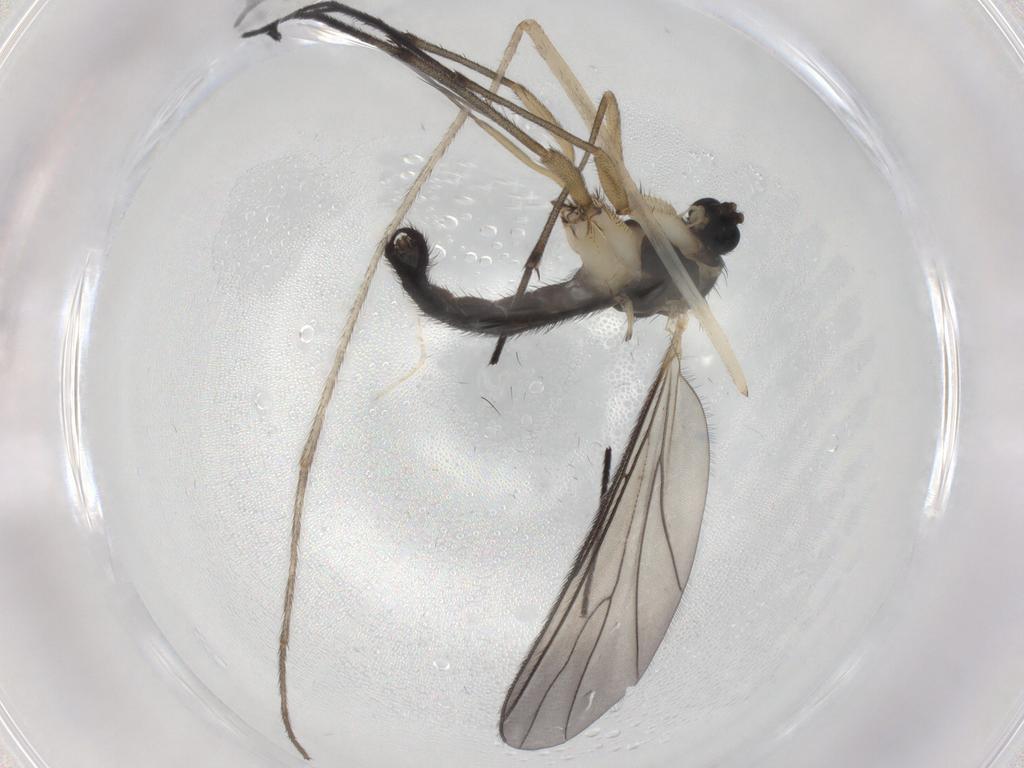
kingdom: Animalia
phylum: Arthropoda
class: Insecta
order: Diptera
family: Sciaridae
